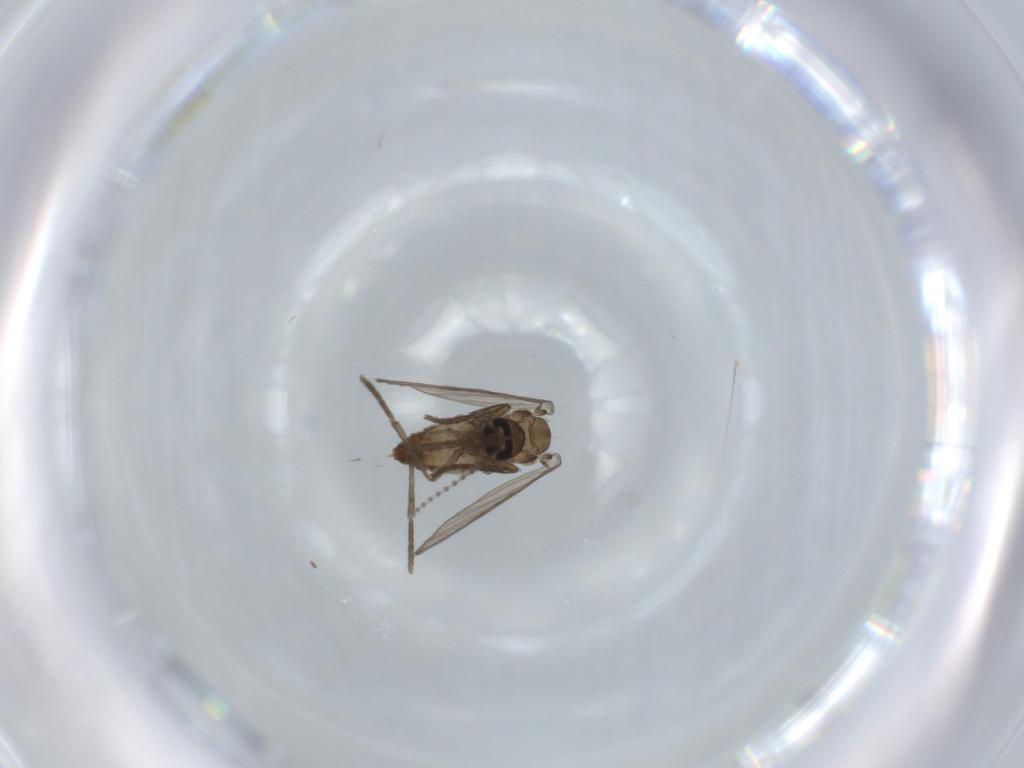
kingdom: Animalia
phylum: Arthropoda
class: Insecta
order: Diptera
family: Psychodidae
